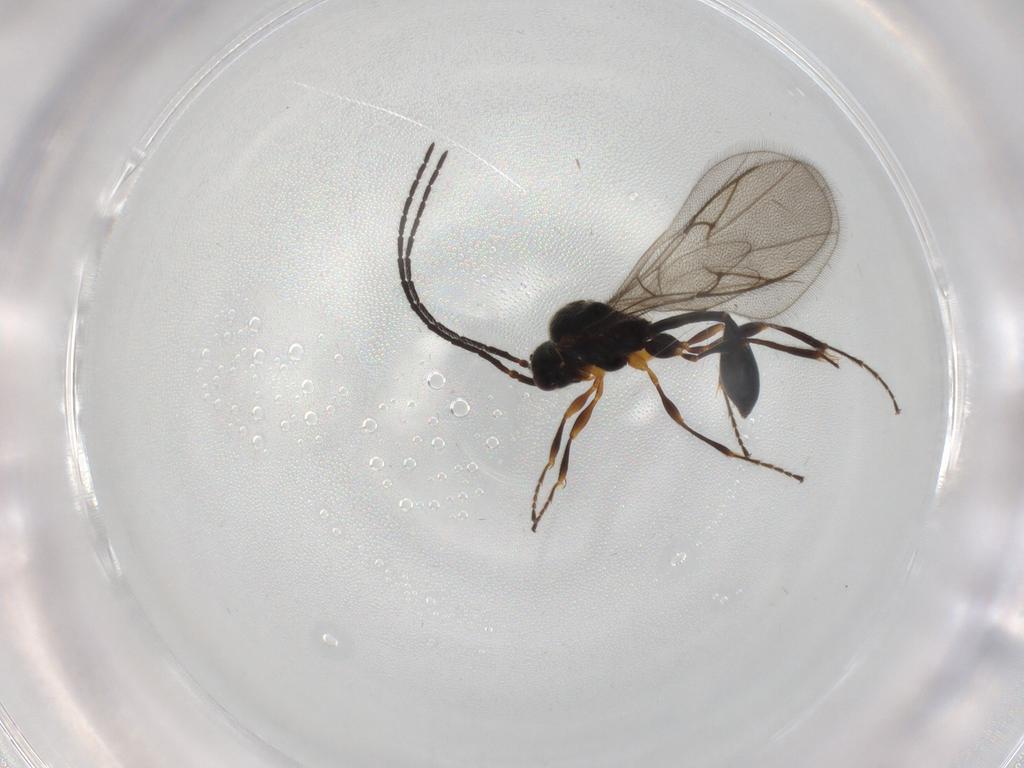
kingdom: Animalia
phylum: Arthropoda
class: Insecta
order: Hymenoptera
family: Diapriidae
